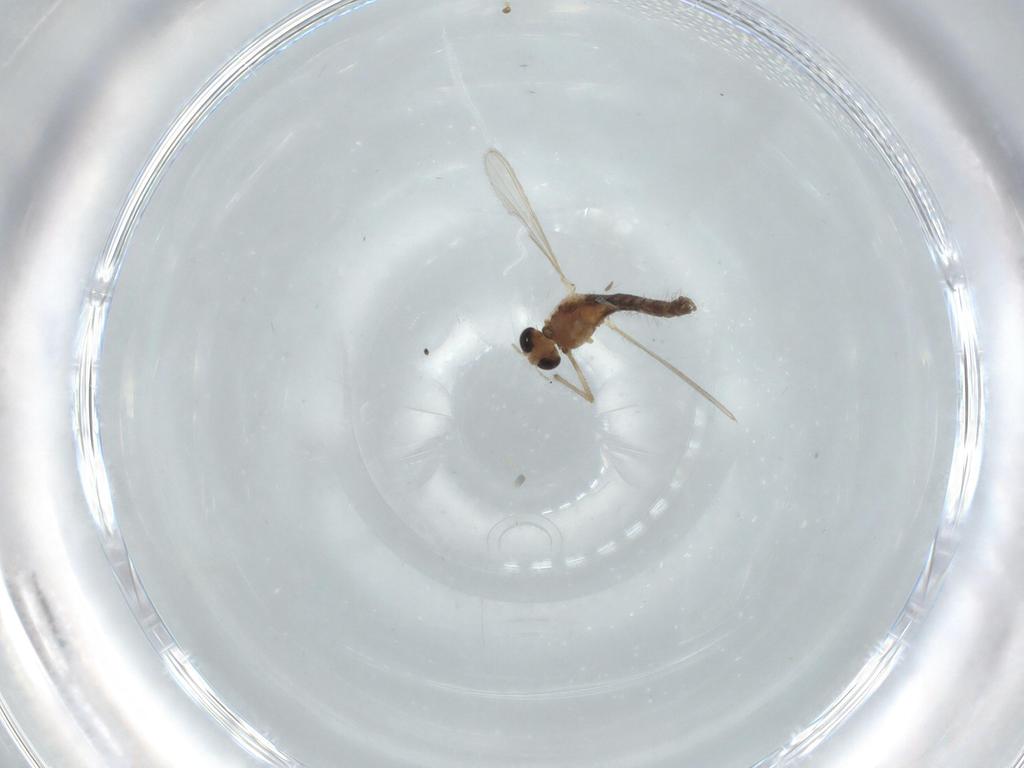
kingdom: Animalia
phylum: Arthropoda
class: Insecta
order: Diptera
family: Chironomidae
